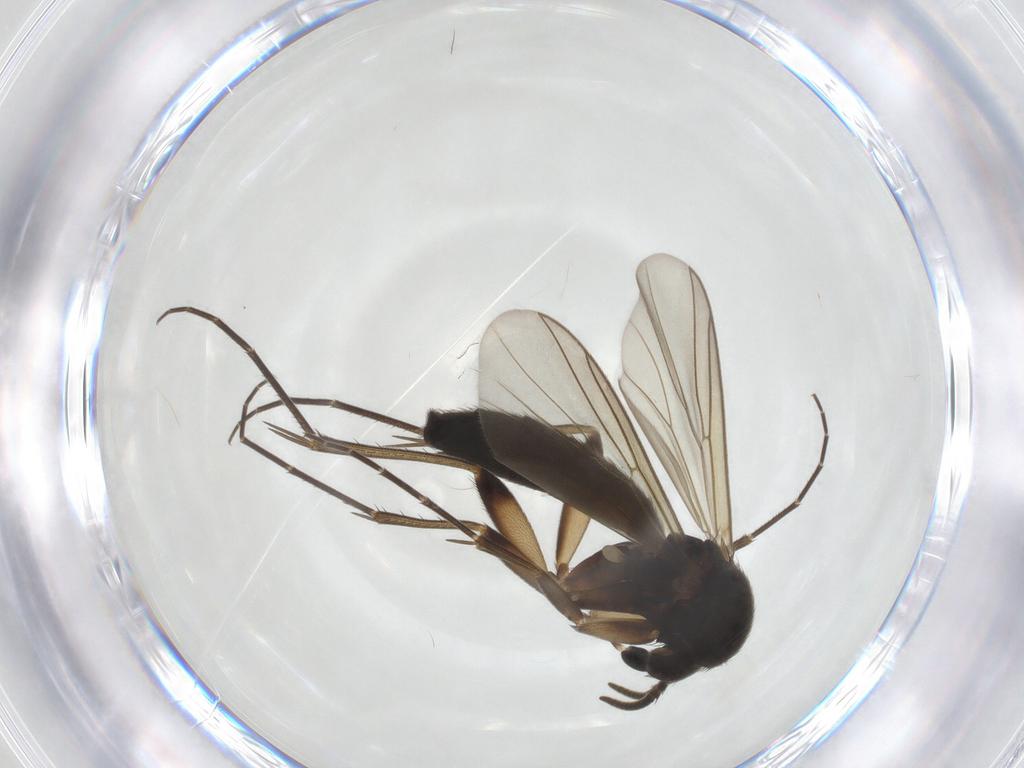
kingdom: Animalia
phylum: Arthropoda
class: Insecta
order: Diptera
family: Mycetophilidae
